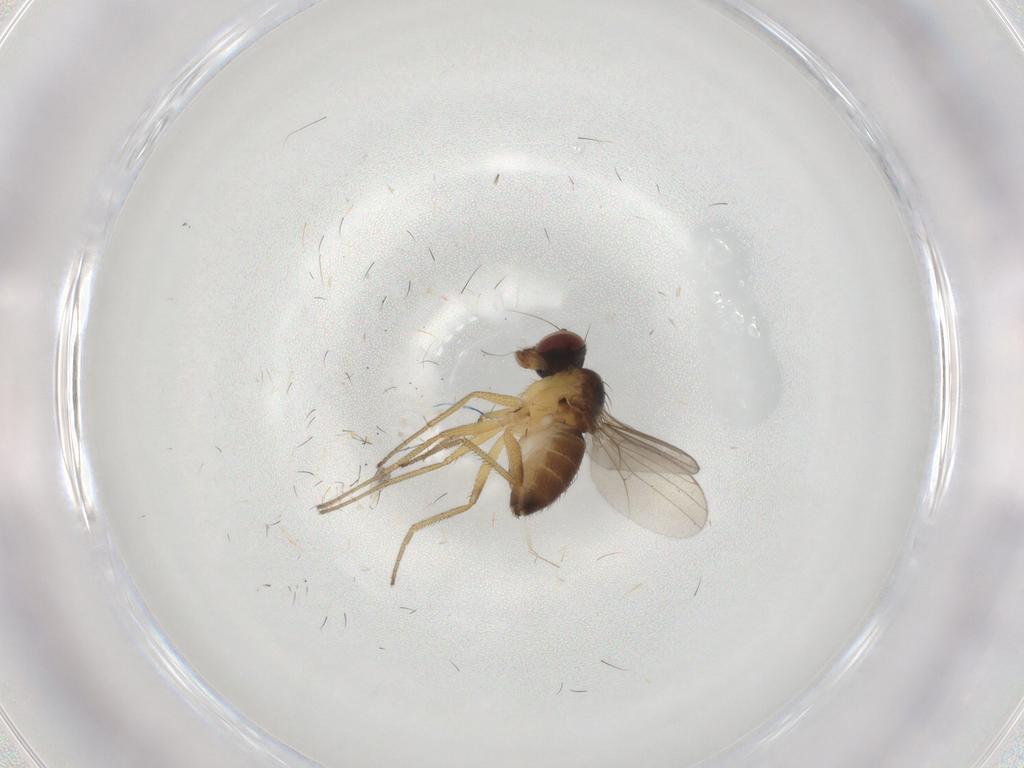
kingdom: Animalia
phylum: Arthropoda
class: Insecta
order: Diptera
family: Dolichopodidae
